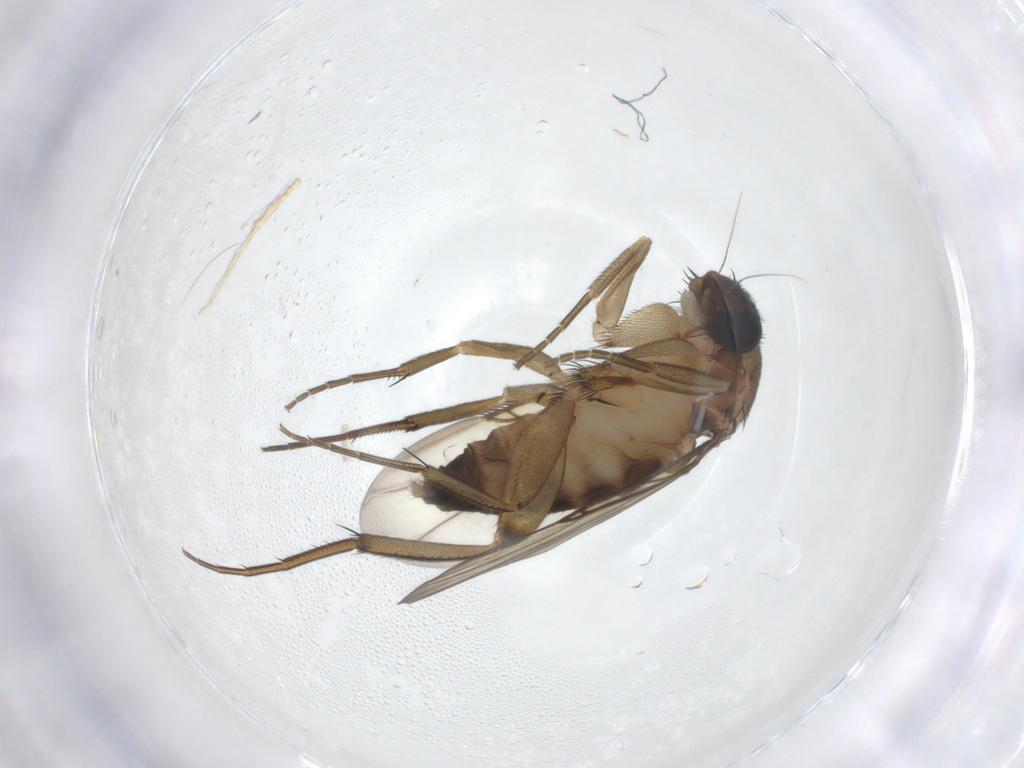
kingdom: Animalia
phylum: Arthropoda
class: Insecta
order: Diptera
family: Phoridae
